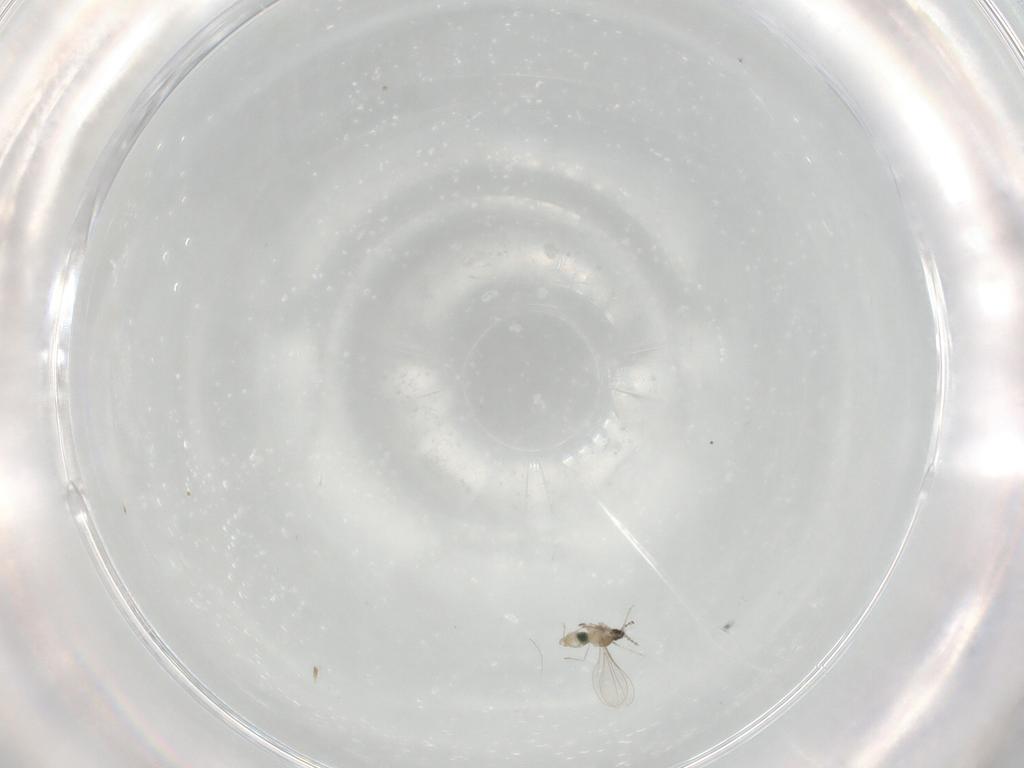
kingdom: Animalia
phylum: Arthropoda
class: Insecta
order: Diptera
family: Cecidomyiidae
